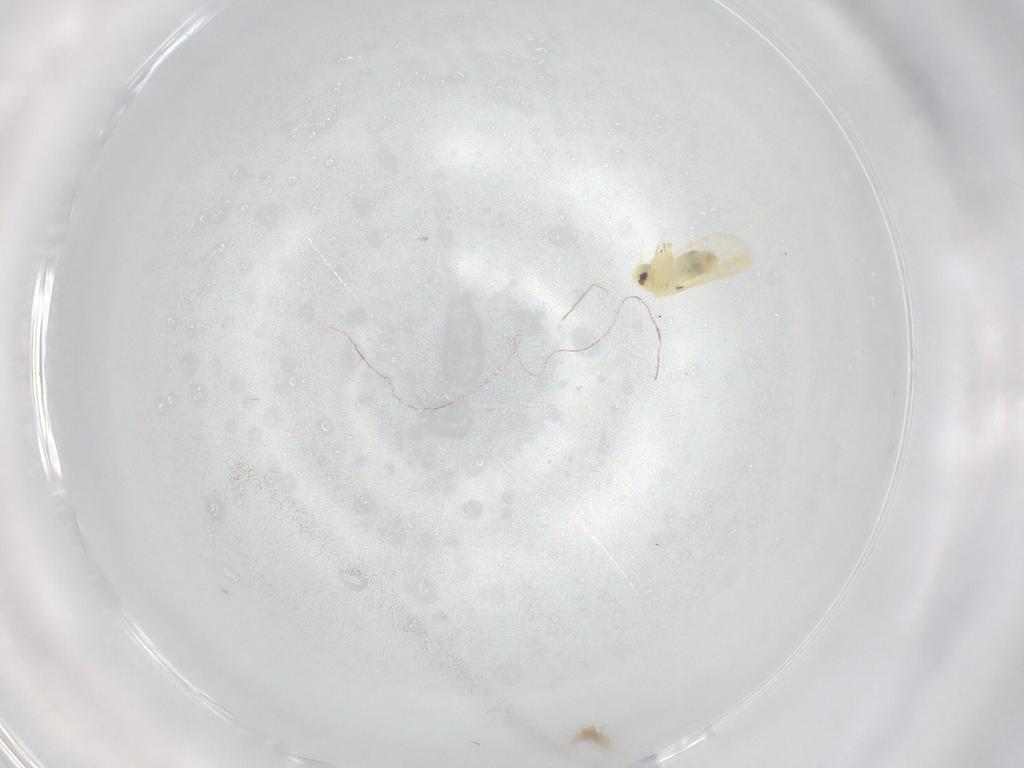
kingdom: Animalia
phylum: Arthropoda
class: Insecta
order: Hemiptera
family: Aleyrodidae
